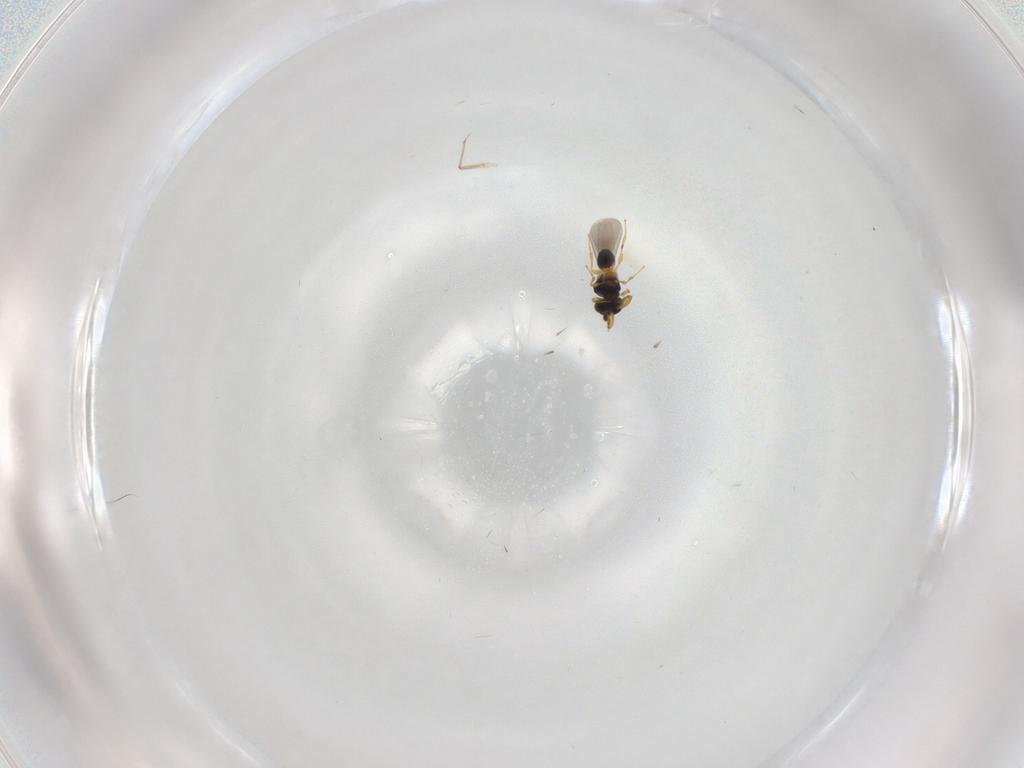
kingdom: Animalia
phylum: Arthropoda
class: Insecta
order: Hymenoptera
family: Platygastridae
